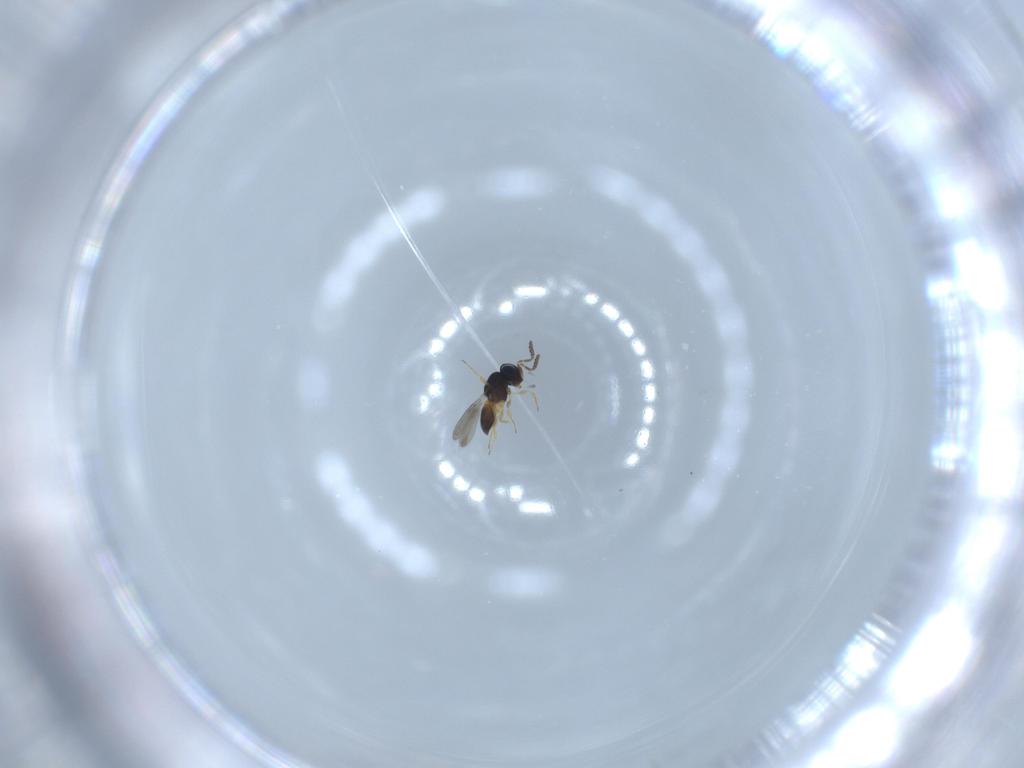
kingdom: Animalia
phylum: Arthropoda
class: Insecta
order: Hymenoptera
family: Scelionidae
